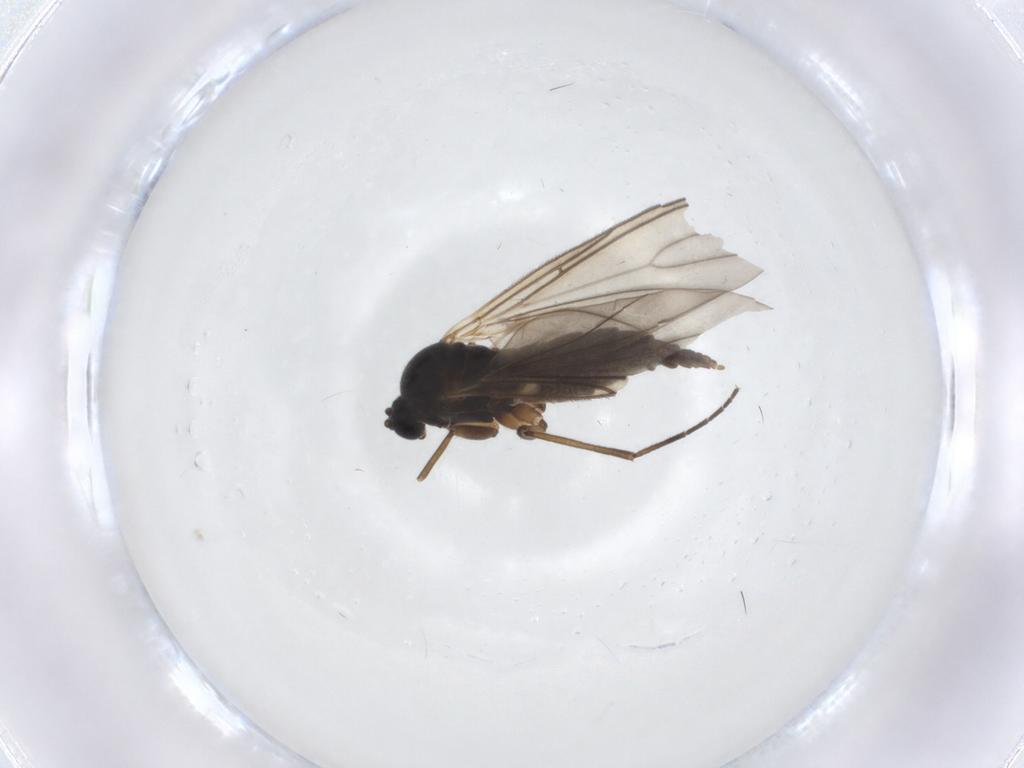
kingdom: Animalia
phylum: Arthropoda
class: Insecta
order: Diptera
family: Sciaridae
